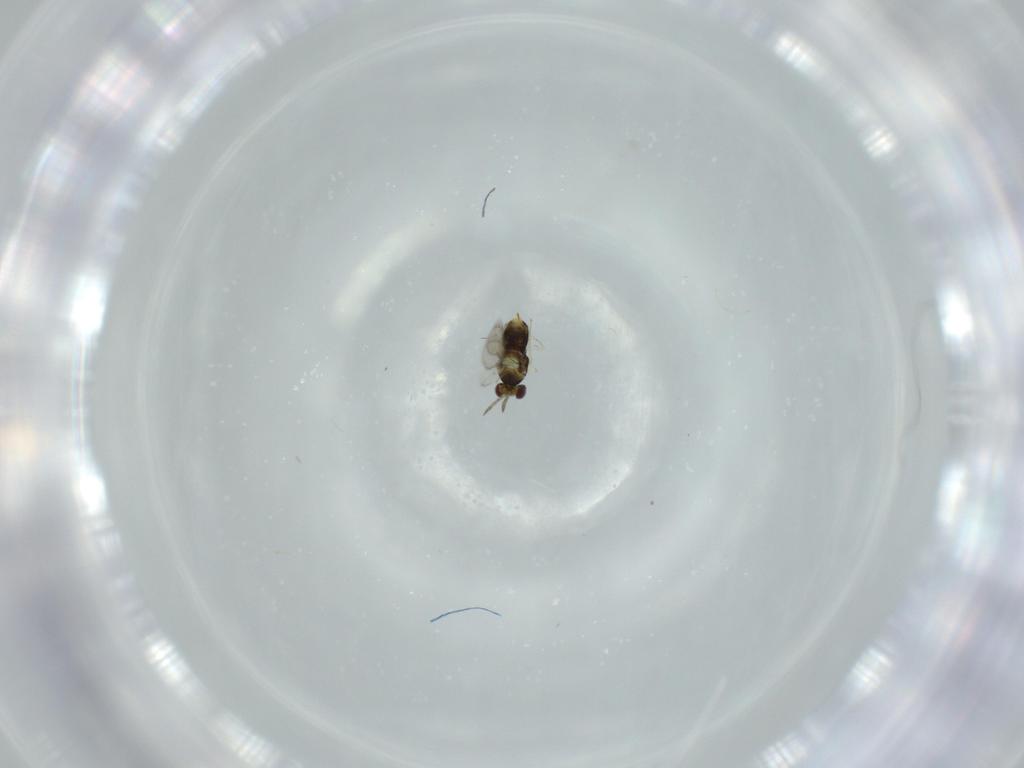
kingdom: Animalia
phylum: Arthropoda
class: Insecta
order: Hymenoptera
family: Aphelinidae
